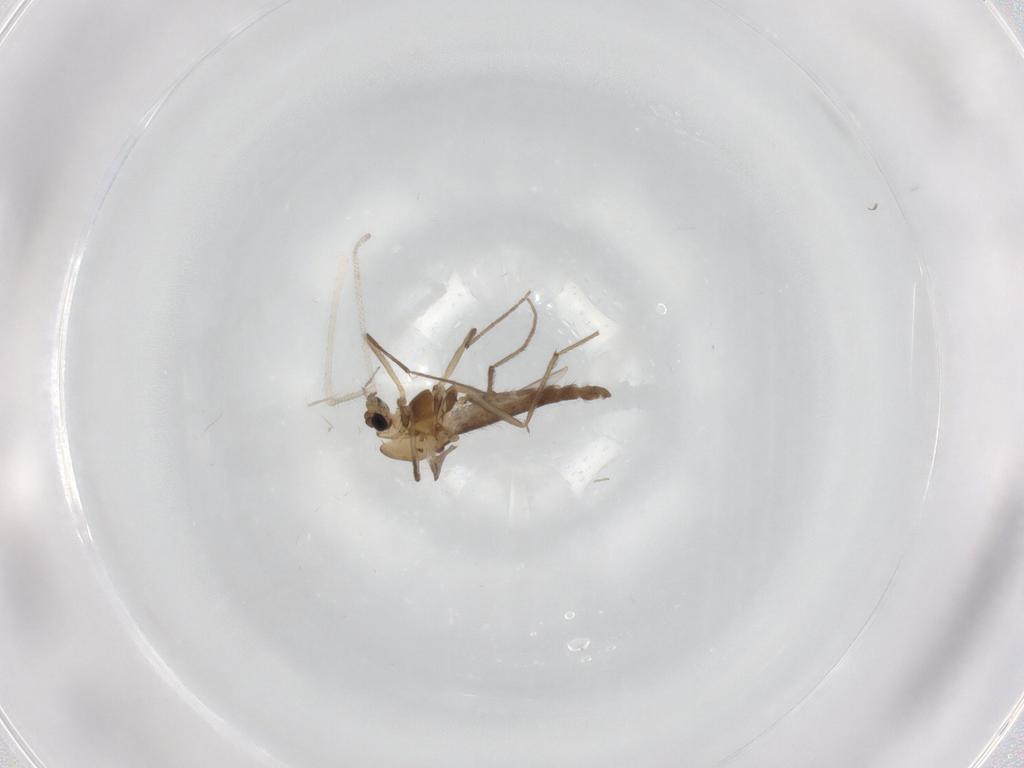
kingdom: Animalia
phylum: Arthropoda
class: Insecta
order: Diptera
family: Chironomidae
